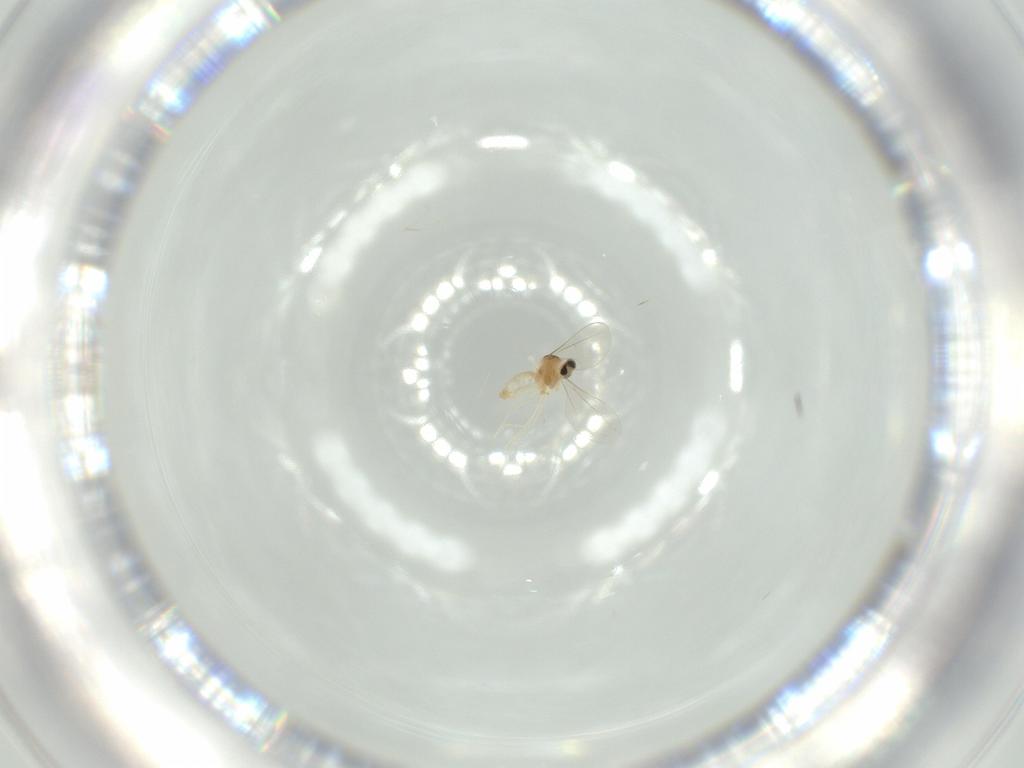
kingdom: Animalia
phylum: Arthropoda
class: Insecta
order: Diptera
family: Cecidomyiidae
